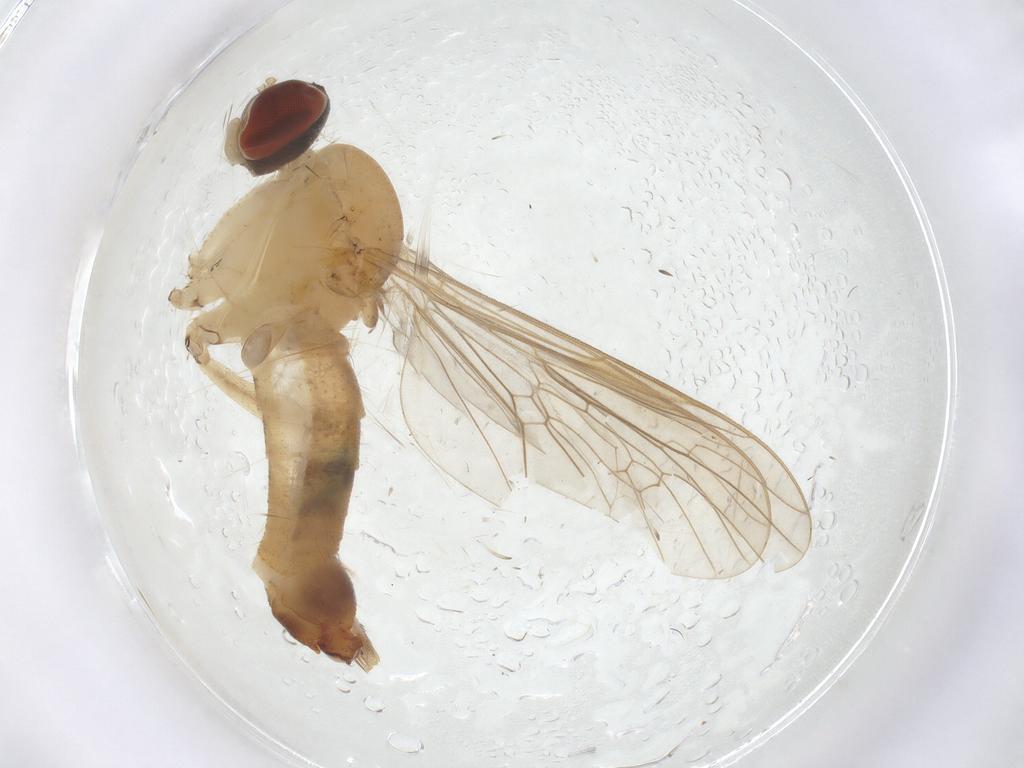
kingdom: Animalia
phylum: Arthropoda
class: Insecta
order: Diptera
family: Apsilocephalidae
